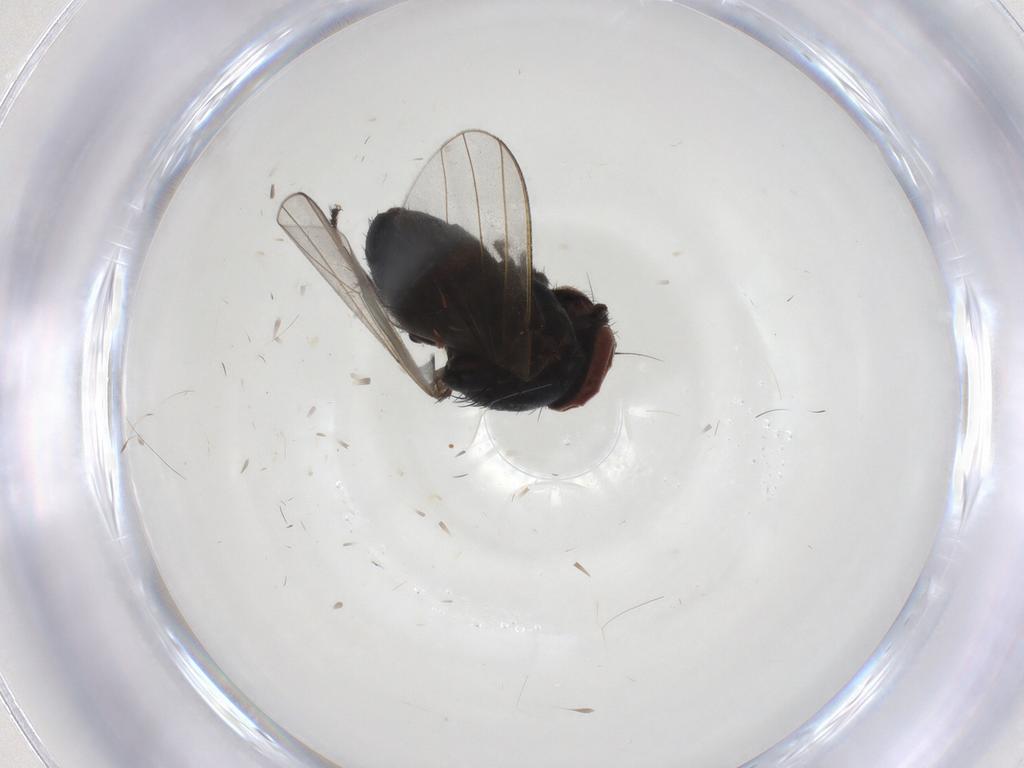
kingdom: Animalia
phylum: Arthropoda
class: Insecta
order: Diptera
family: Milichiidae
